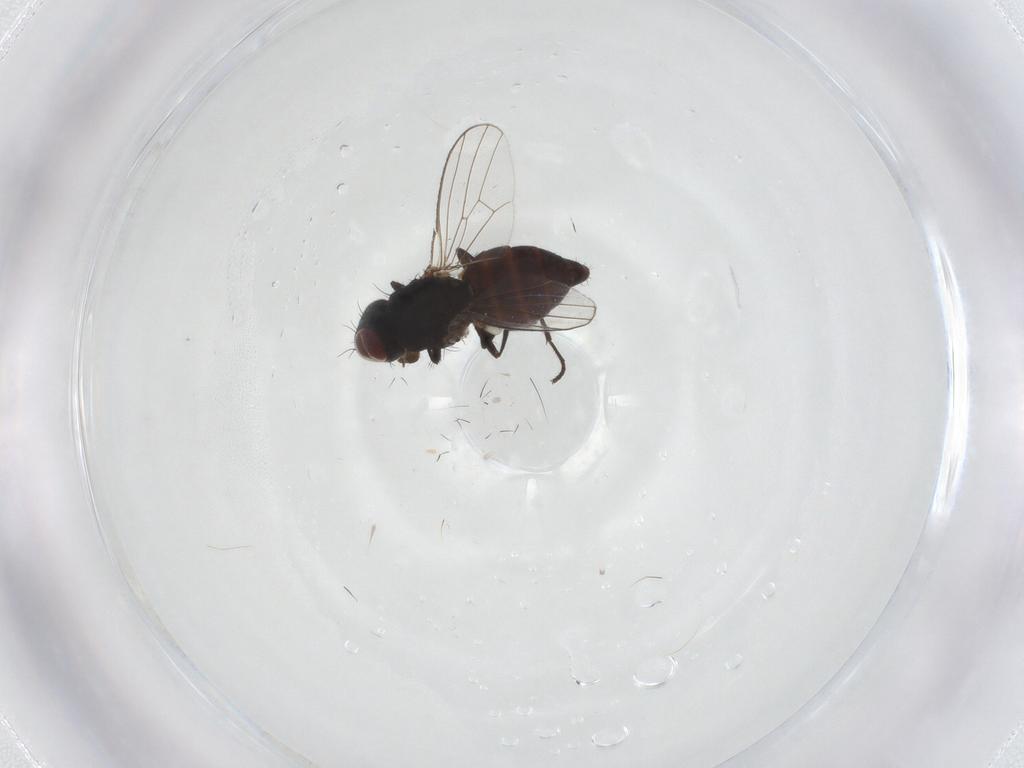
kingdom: Animalia
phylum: Arthropoda
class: Insecta
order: Diptera
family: Carnidae
